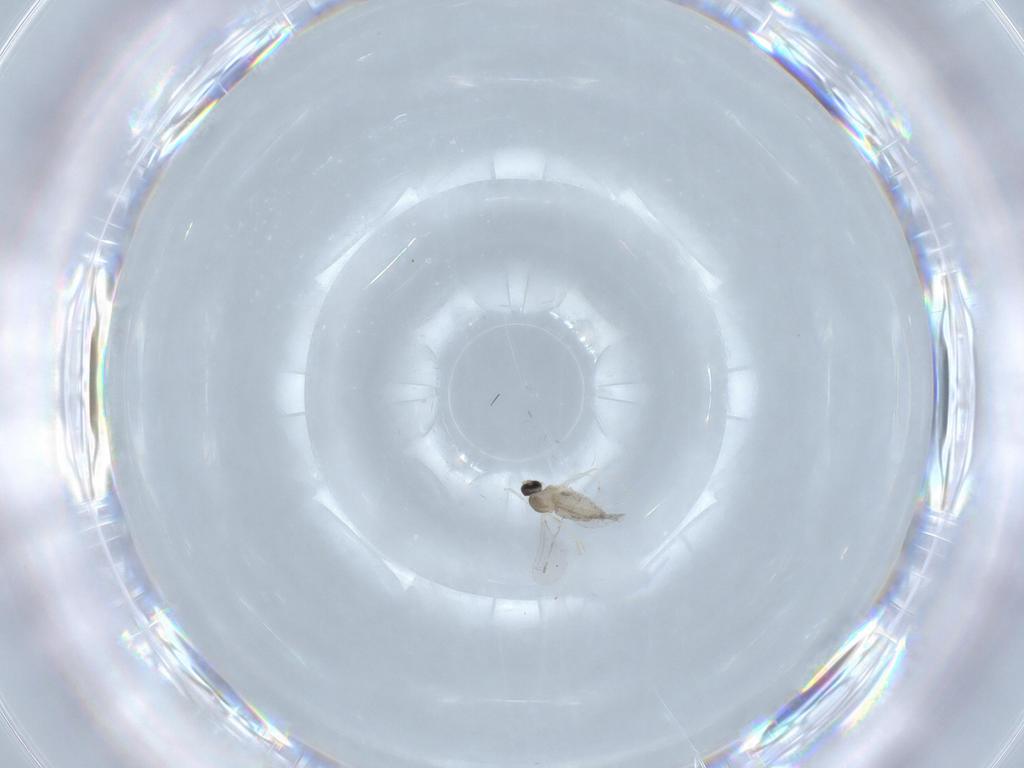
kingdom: Animalia
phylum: Arthropoda
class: Insecta
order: Diptera
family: Cecidomyiidae
